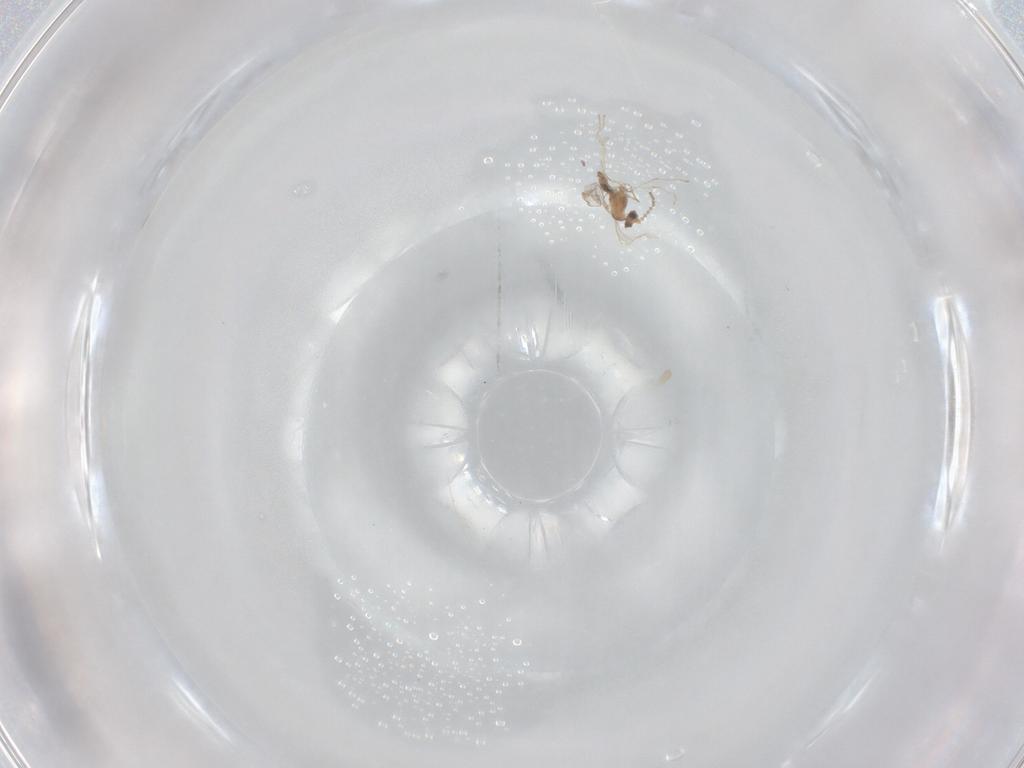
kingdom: Animalia
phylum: Arthropoda
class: Insecta
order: Diptera
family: Cecidomyiidae
